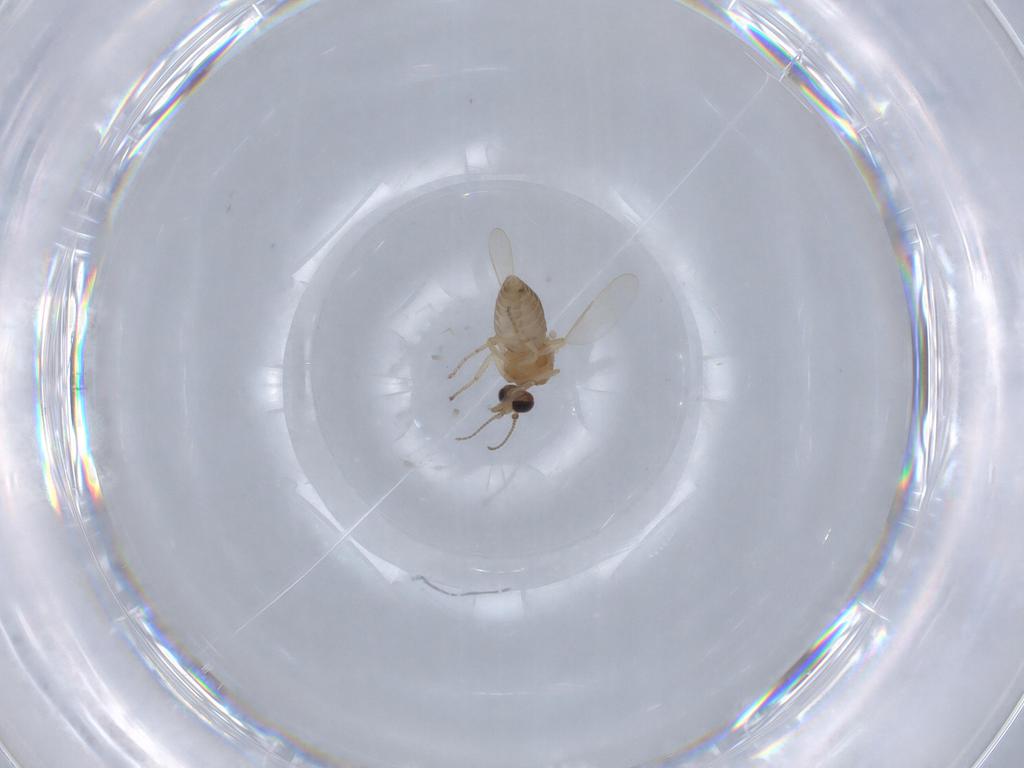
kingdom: Animalia
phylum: Arthropoda
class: Insecta
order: Diptera
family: Ceratopogonidae
